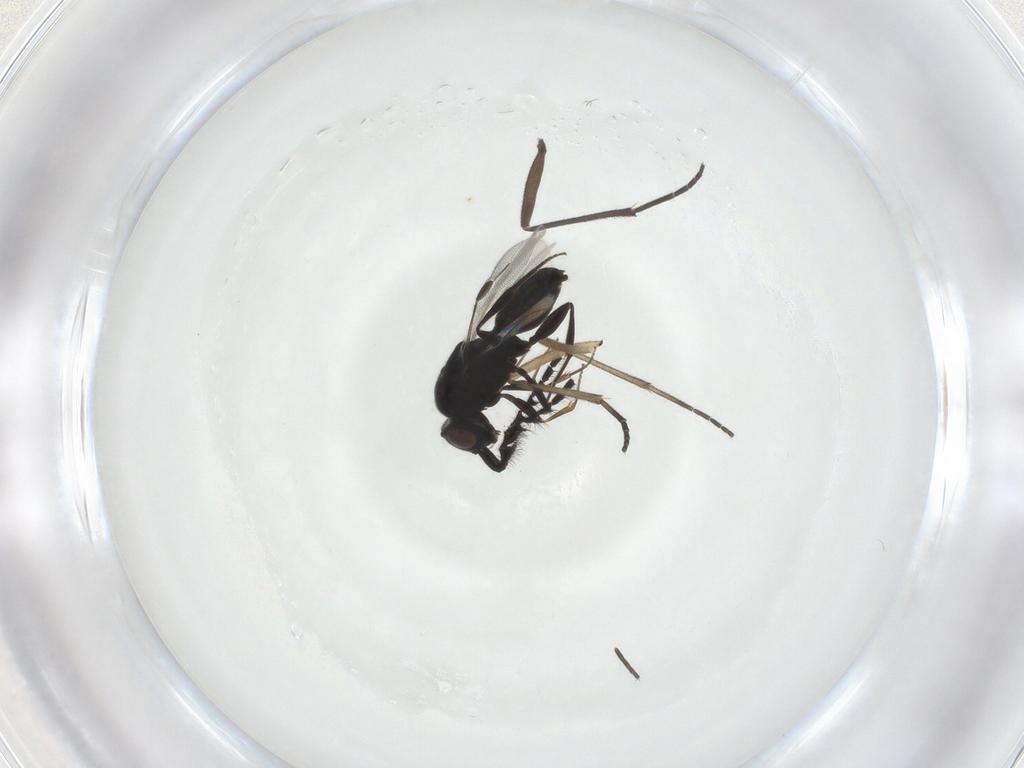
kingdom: Animalia
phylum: Arthropoda
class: Insecta
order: Diptera
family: Sciaridae
